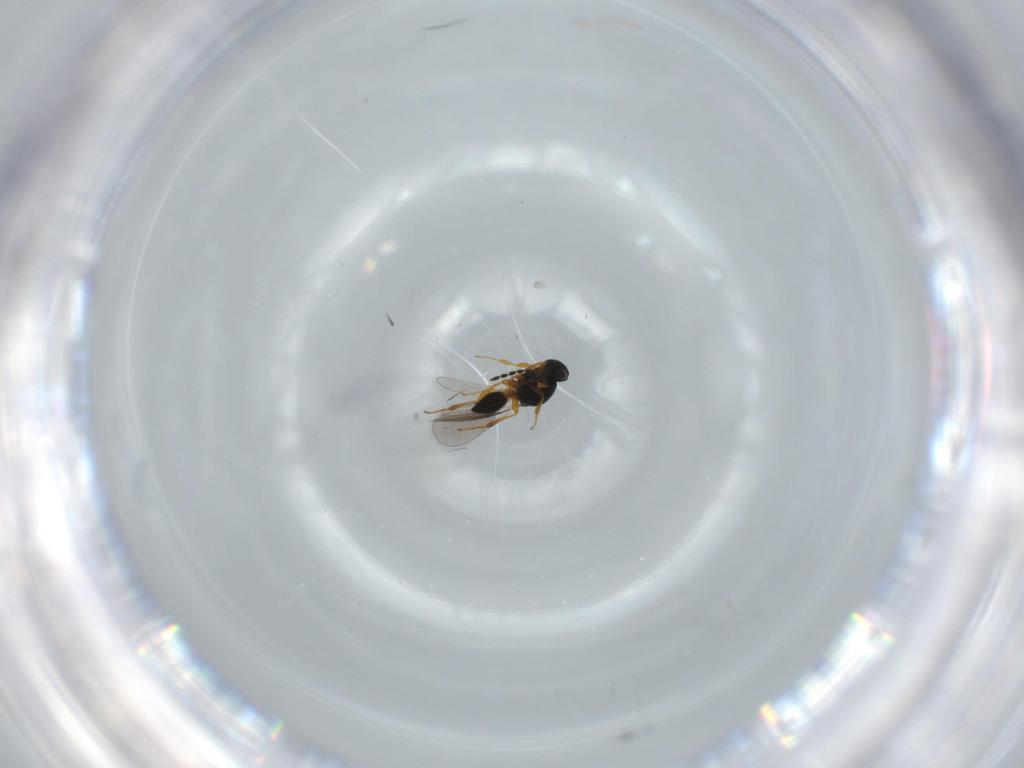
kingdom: Animalia
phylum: Arthropoda
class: Insecta
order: Hymenoptera
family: Platygastridae
